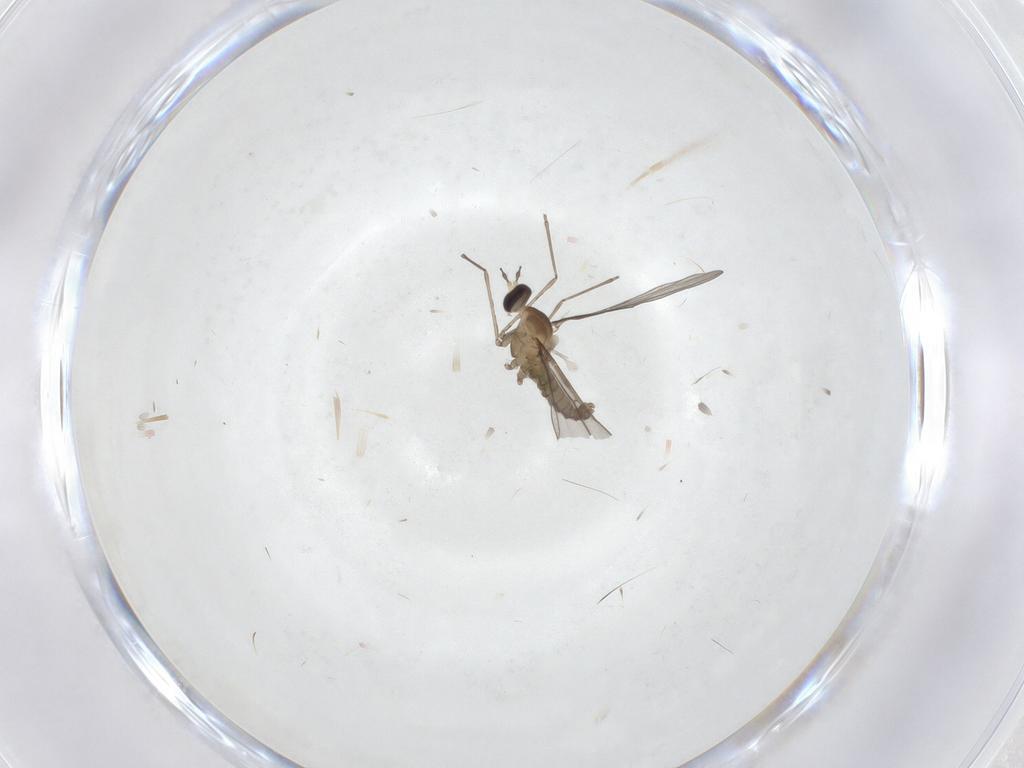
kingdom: Animalia
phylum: Arthropoda
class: Insecta
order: Diptera
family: Cecidomyiidae
